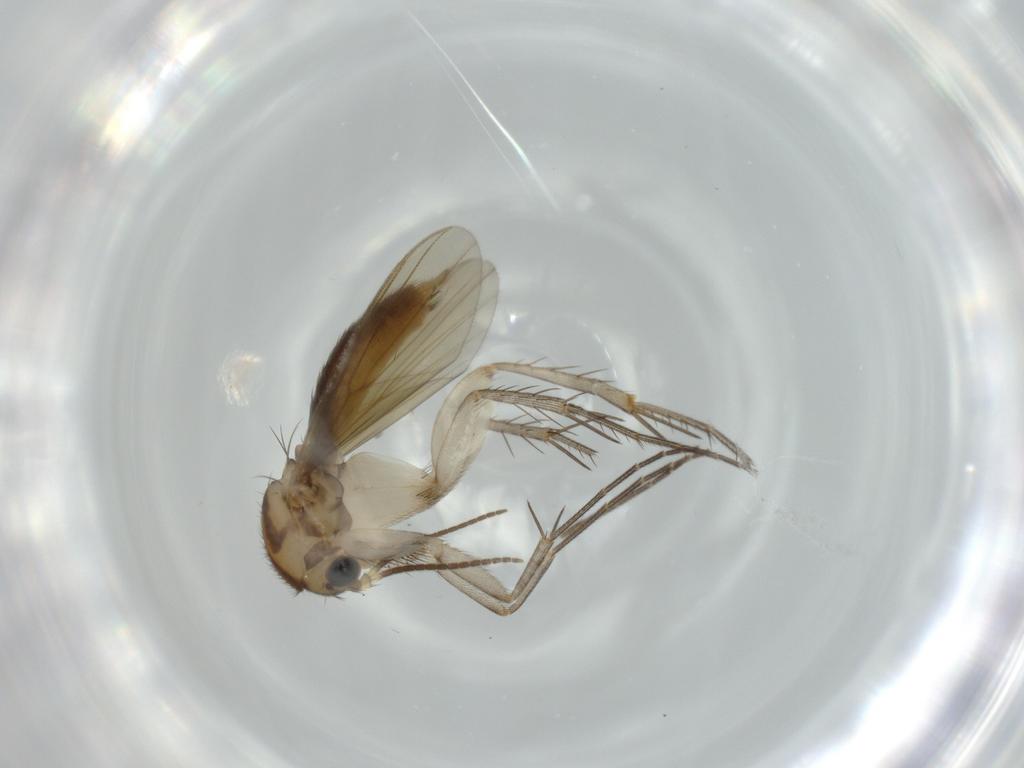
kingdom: Animalia
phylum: Arthropoda
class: Insecta
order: Diptera
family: Mycetophilidae
